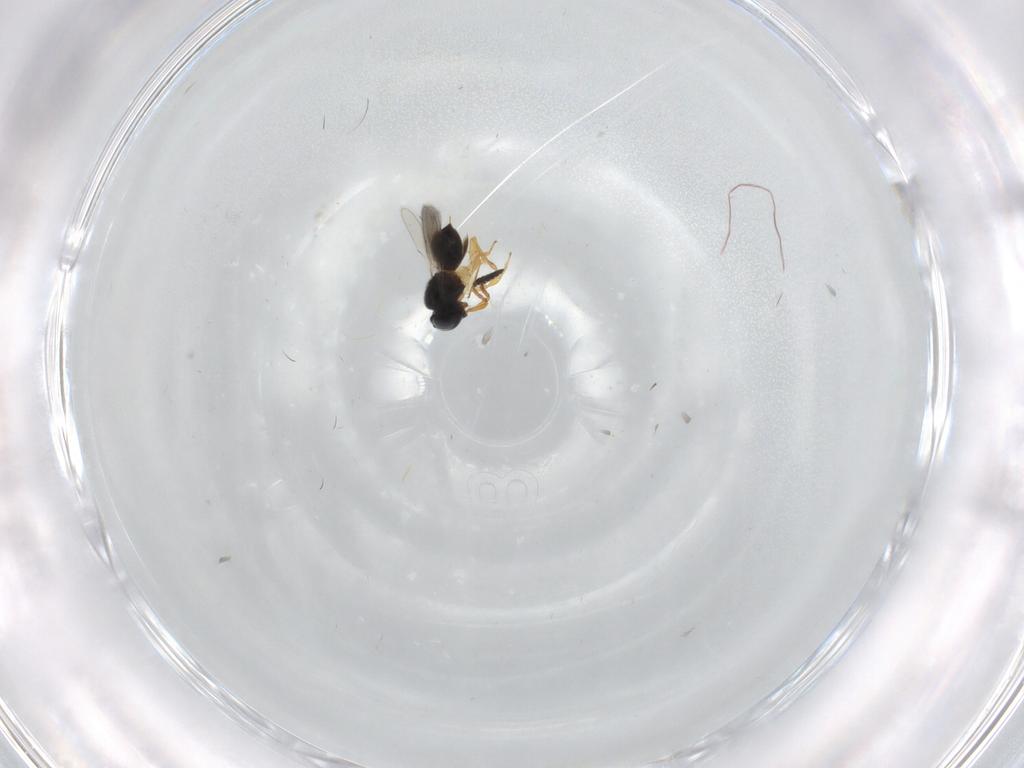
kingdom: Animalia
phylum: Arthropoda
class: Insecta
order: Hymenoptera
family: Scelionidae
